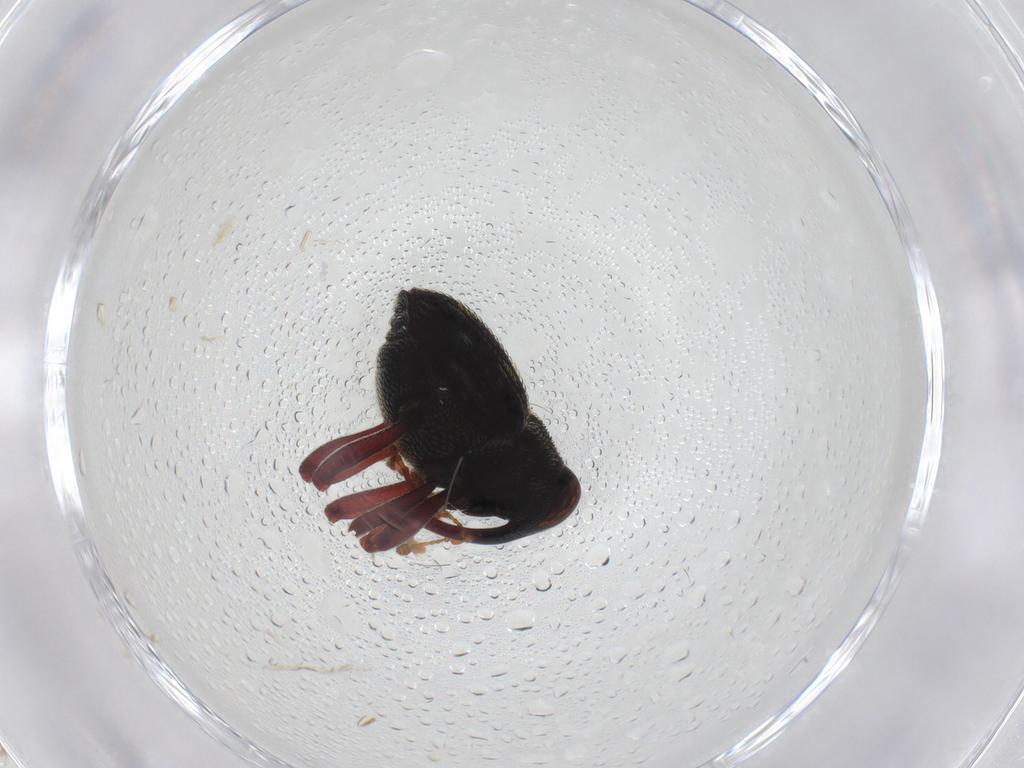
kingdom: Animalia
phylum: Arthropoda
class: Insecta
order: Coleoptera
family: Curculionidae
